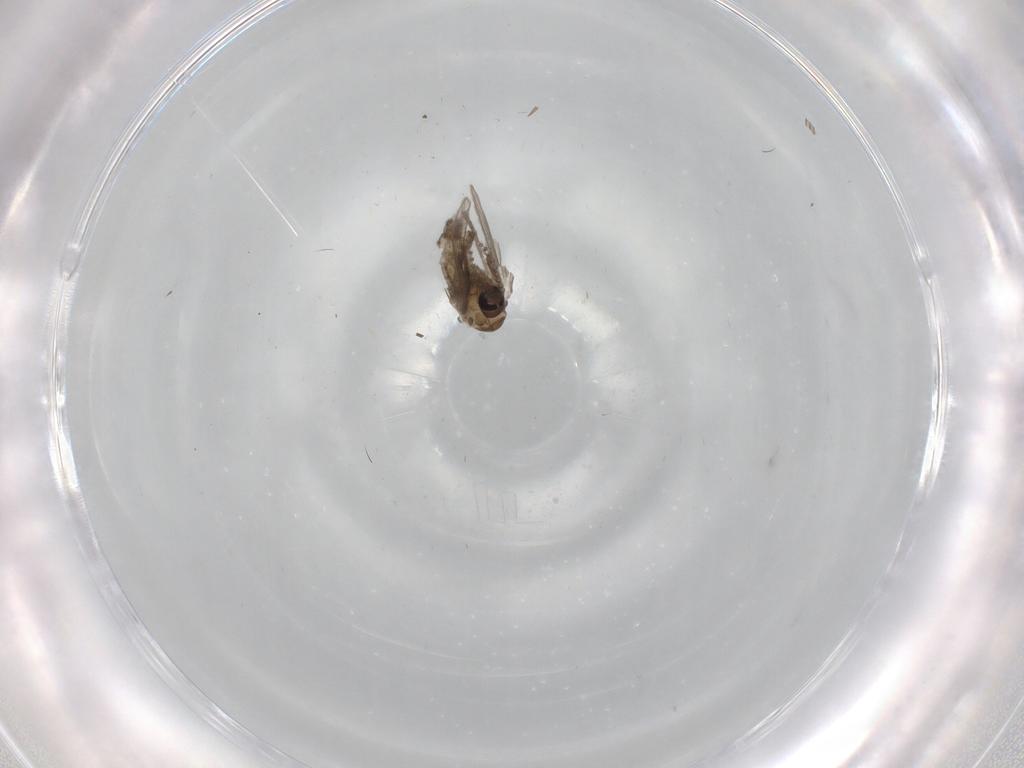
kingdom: Animalia
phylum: Arthropoda
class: Insecta
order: Diptera
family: Psychodidae
